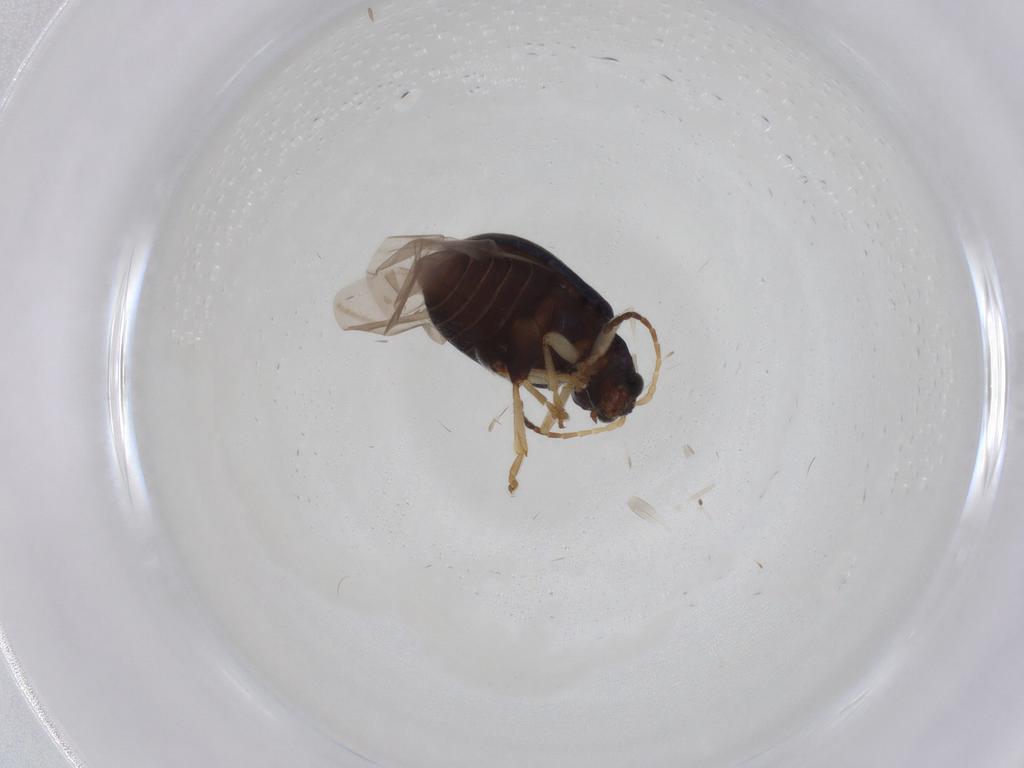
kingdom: Animalia
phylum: Arthropoda
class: Insecta
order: Coleoptera
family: Chrysomelidae
